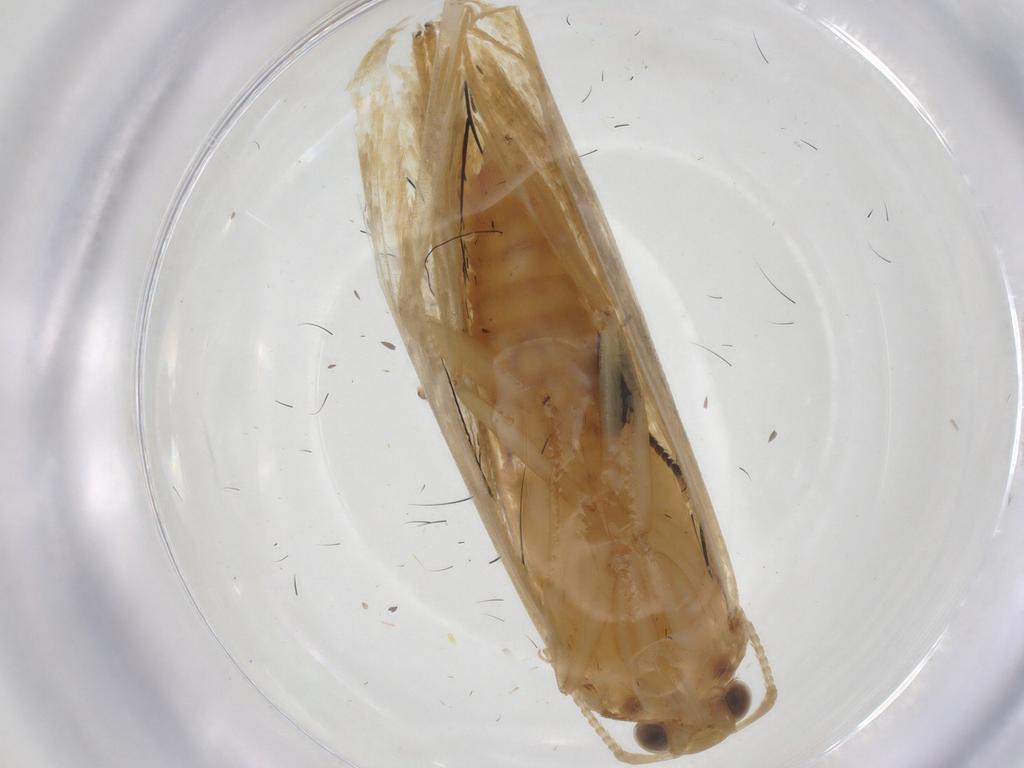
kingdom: Animalia
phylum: Arthropoda
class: Insecta
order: Lepidoptera
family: Lecithoceridae
